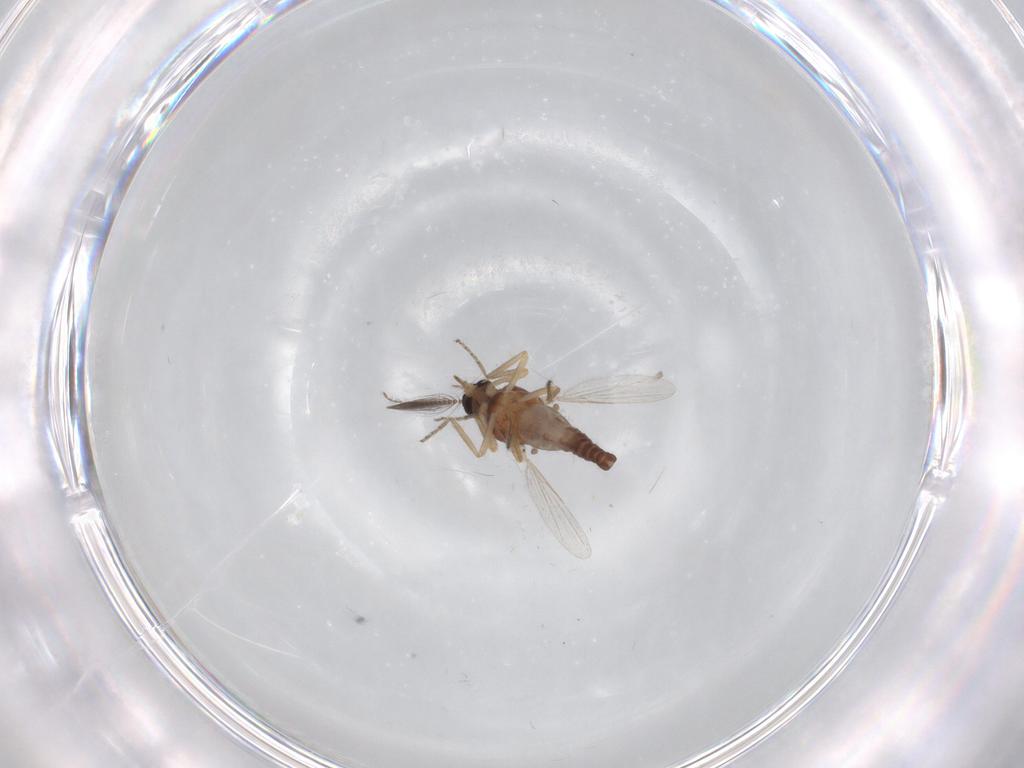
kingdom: Animalia
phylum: Arthropoda
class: Insecta
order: Diptera
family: Ceratopogonidae
